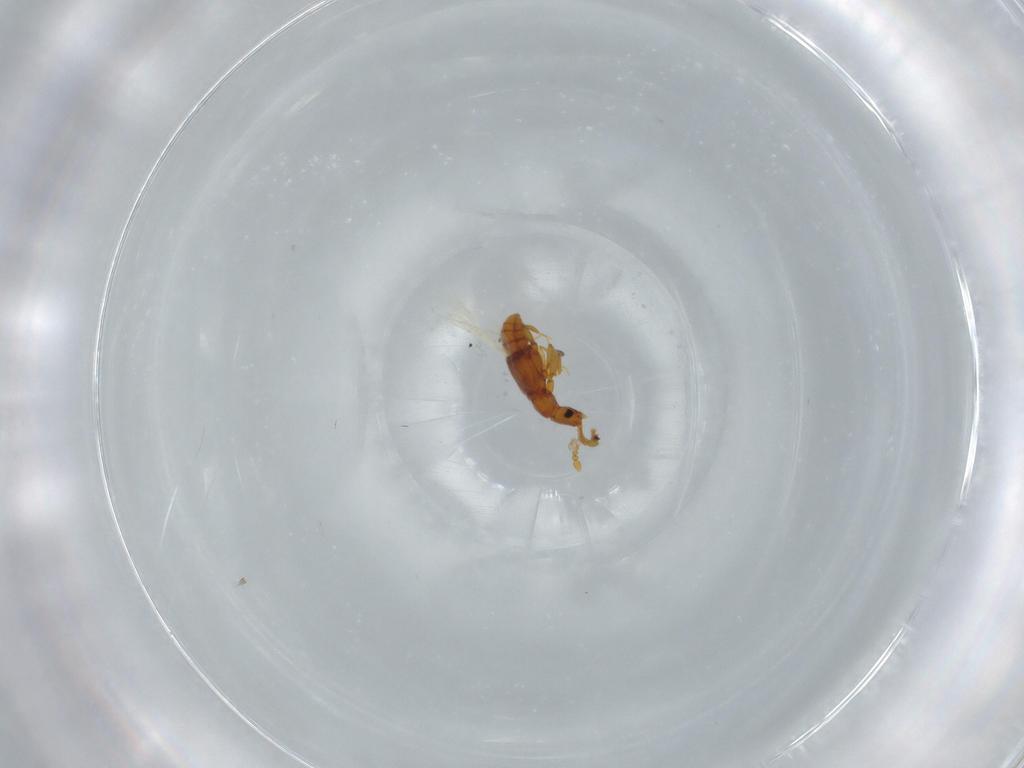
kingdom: Animalia
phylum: Arthropoda
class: Insecta
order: Coleoptera
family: Staphylinidae
